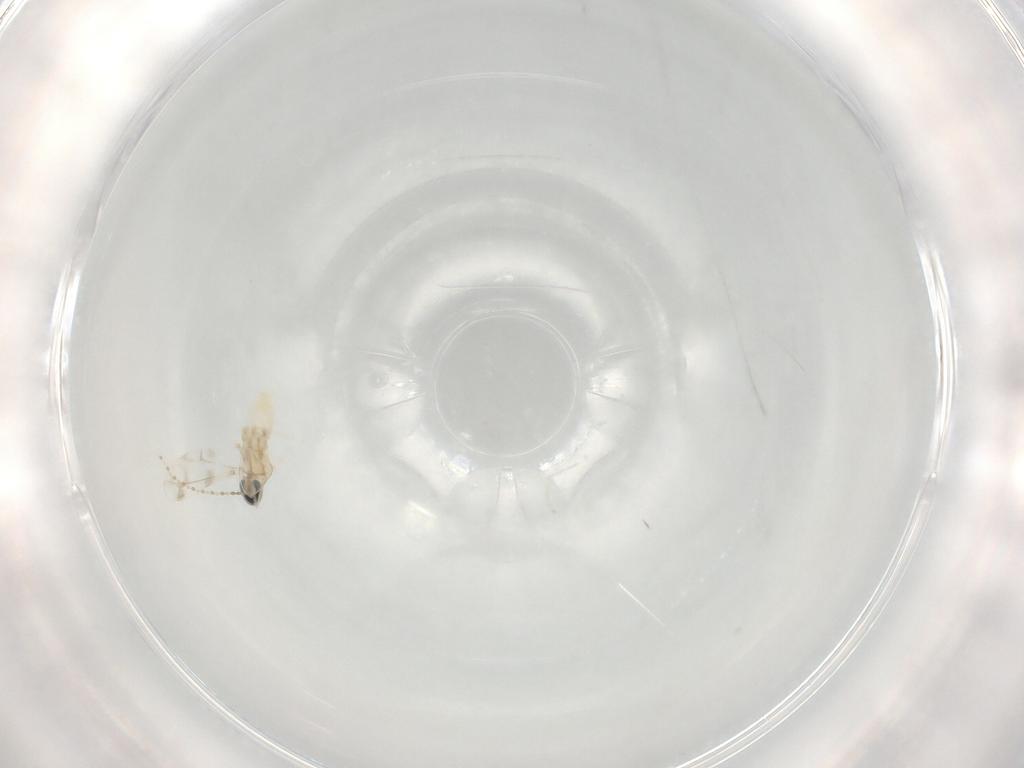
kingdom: Animalia
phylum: Arthropoda
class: Insecta
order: Diptera
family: Cecidomyiidae
